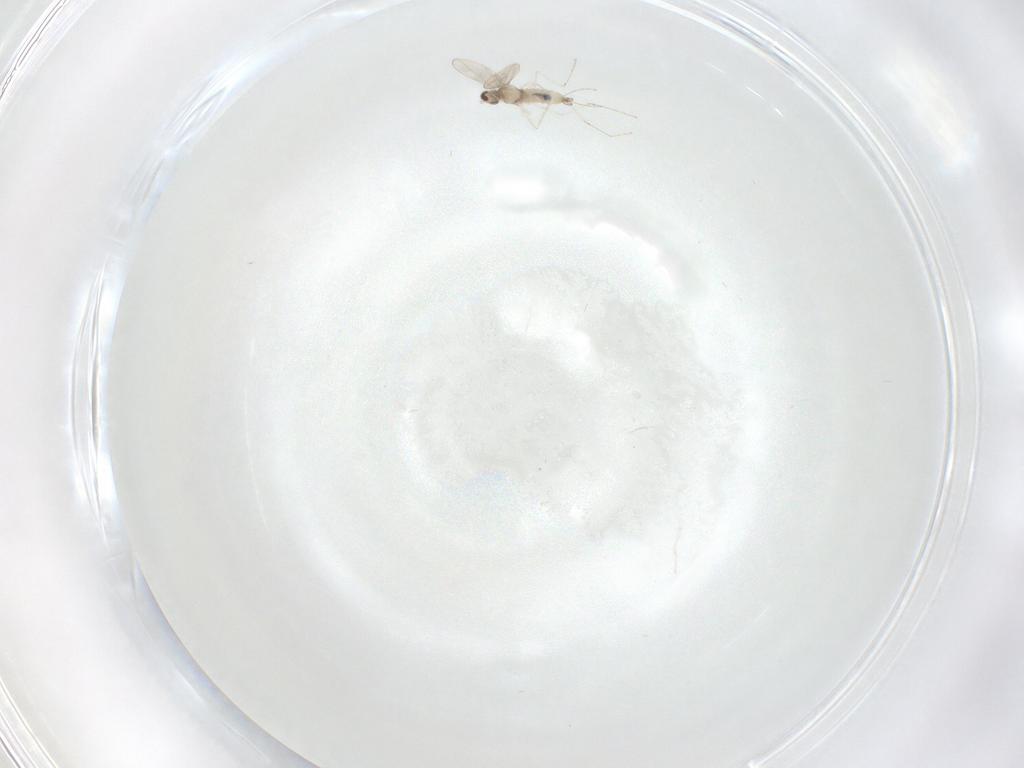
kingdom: Animalia
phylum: Arthropoda
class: Insecta
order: Diptera
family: Cecidomyiidae
